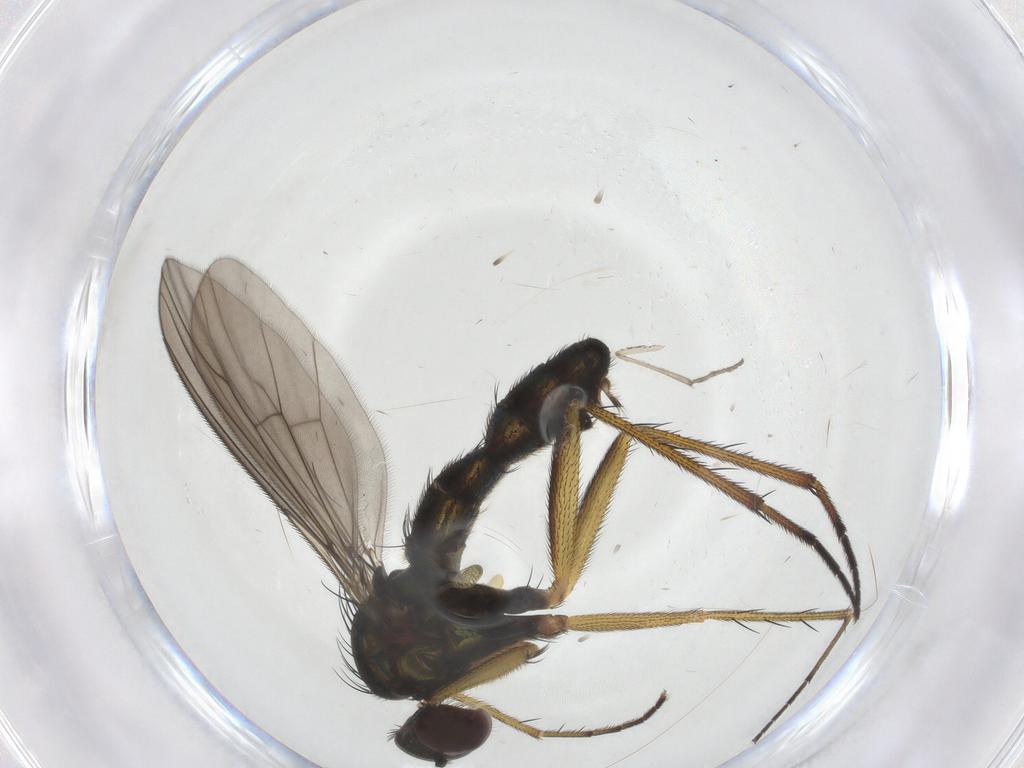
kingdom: Animalia
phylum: Arthropoda
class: Insecta
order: Diptera
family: Dolichopodidae
